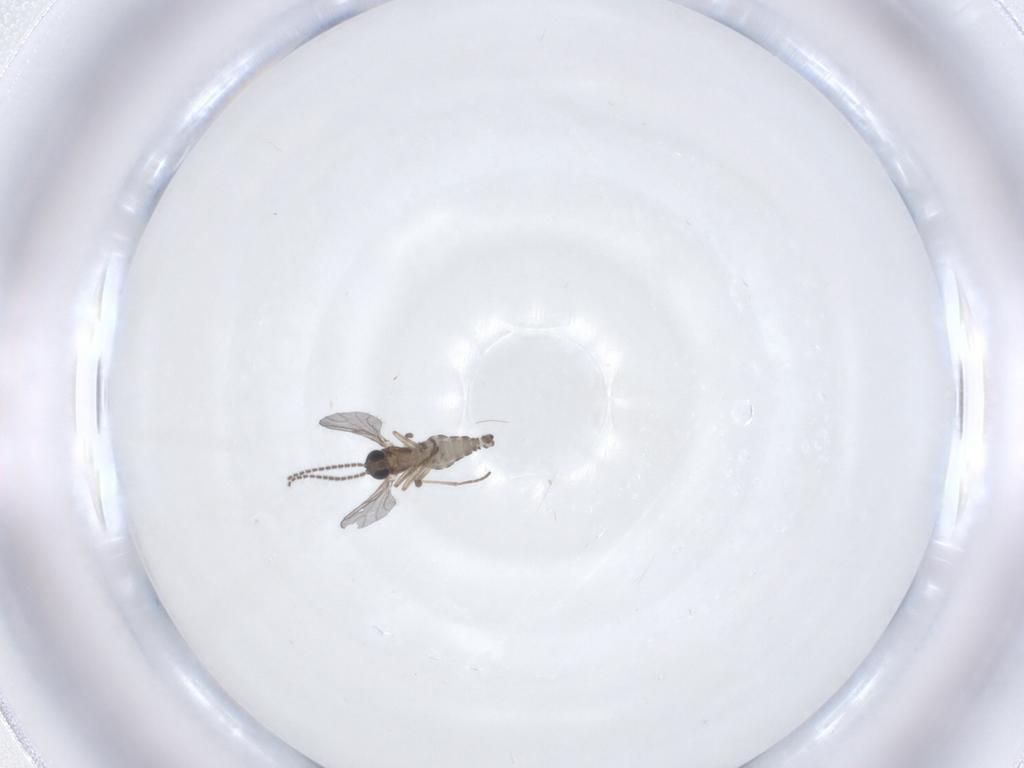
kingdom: Animalia
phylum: Arthropoda
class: Insecta
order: Diptera
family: Sciaridae
